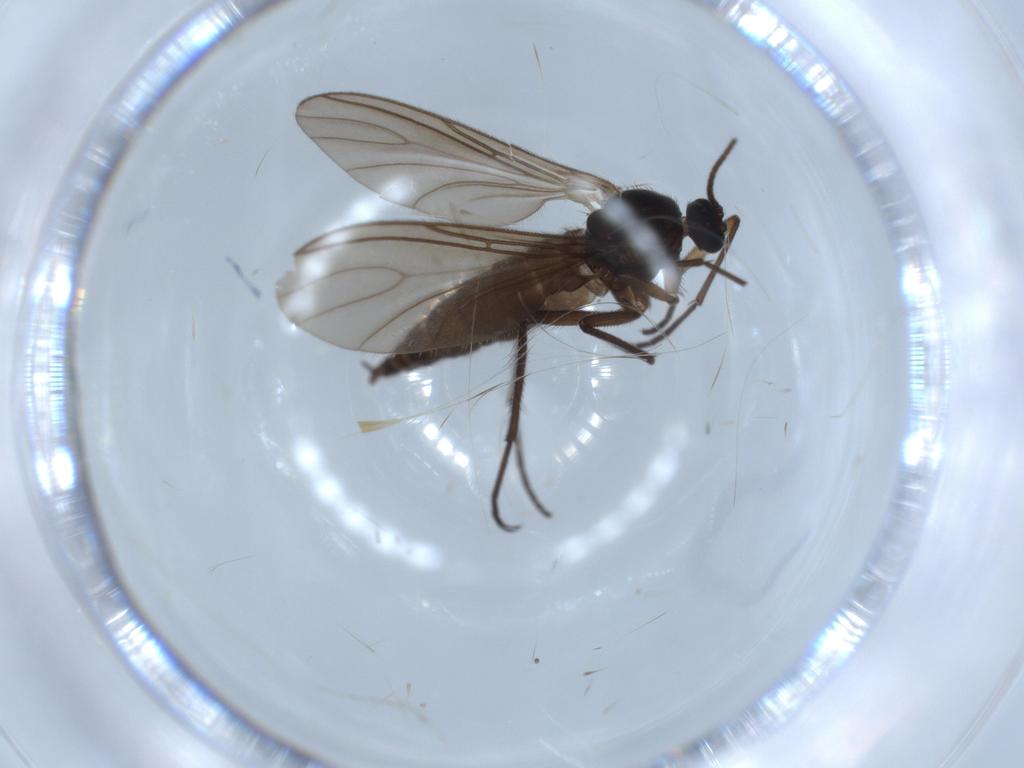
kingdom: Animalia
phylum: Arthropoda
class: Insecta
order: Diptera
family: Sciaridae
